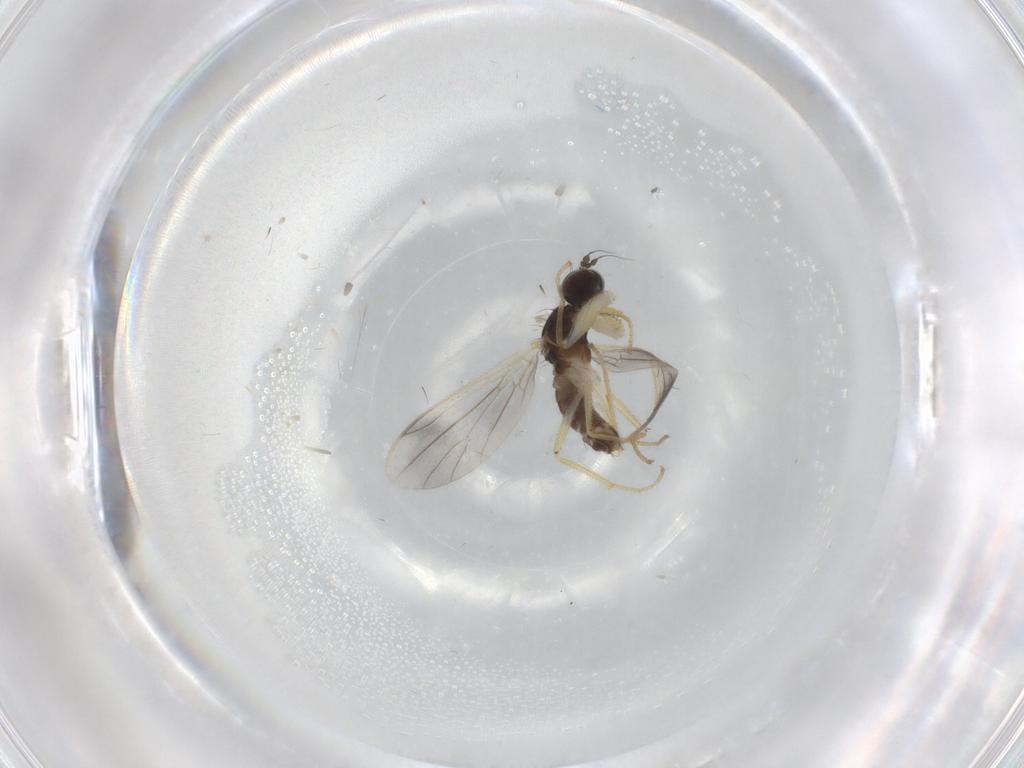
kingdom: Animalia
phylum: Arthropoda
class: Insecta
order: Diptera
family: Empididae
